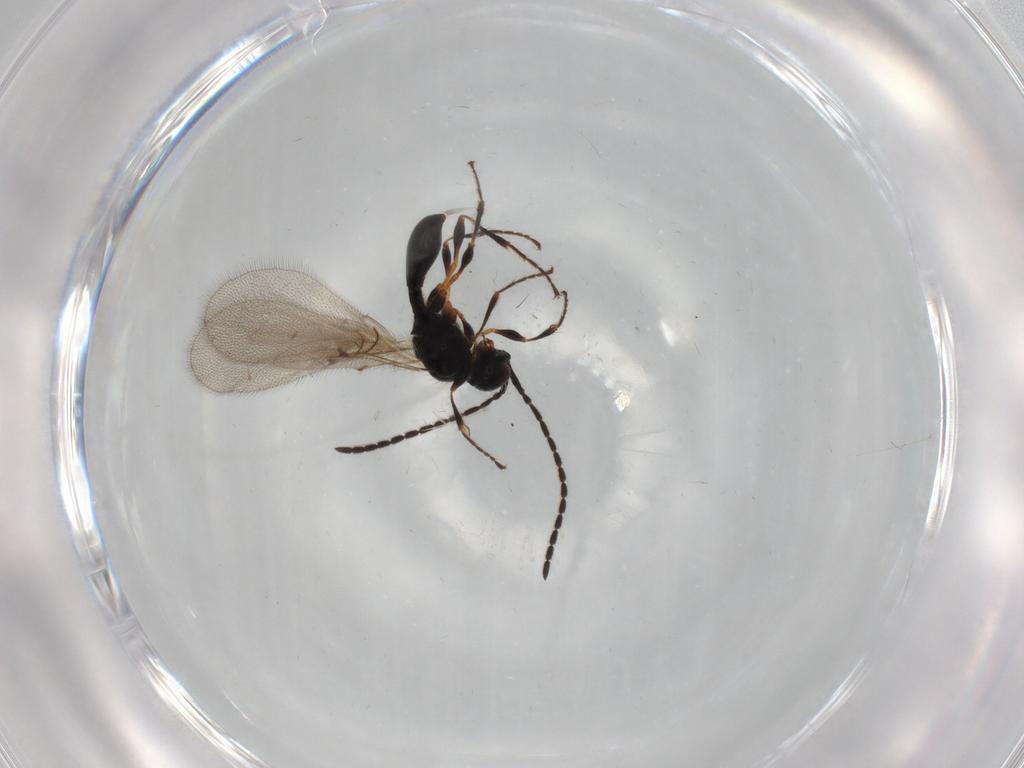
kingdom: Animalia
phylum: Arthropoda
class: Insecta
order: Hymenoptera
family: Diapriidae
